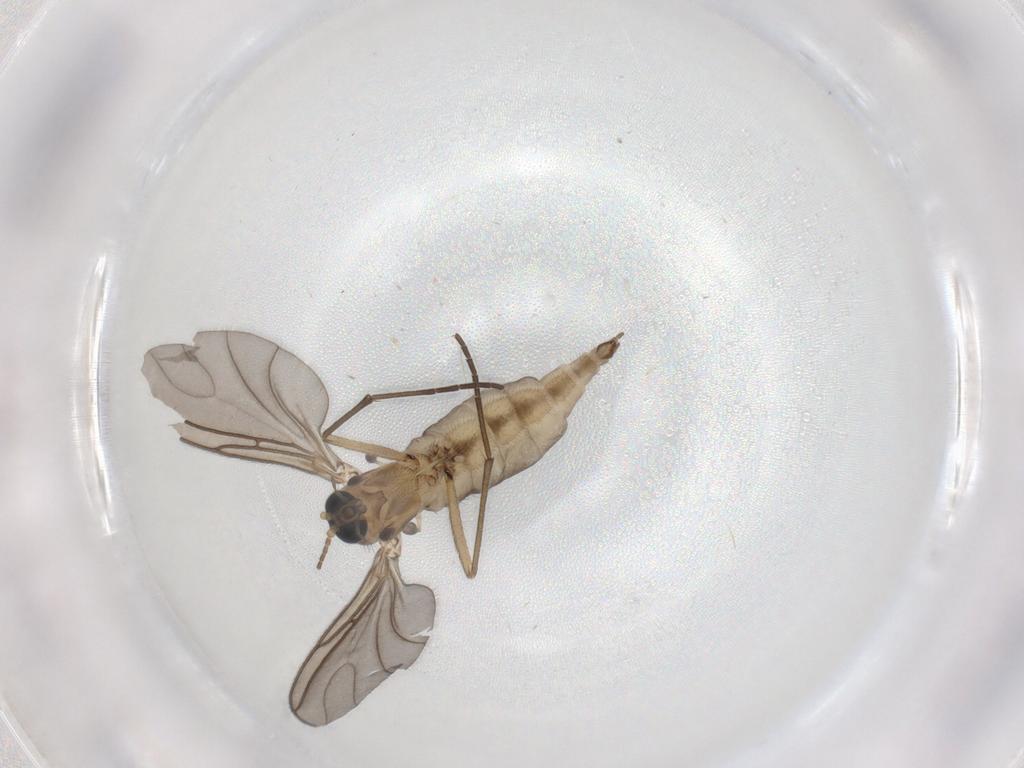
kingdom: Animalia
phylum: Arthropoda
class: Insecta
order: Diptera
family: Sciaridae
